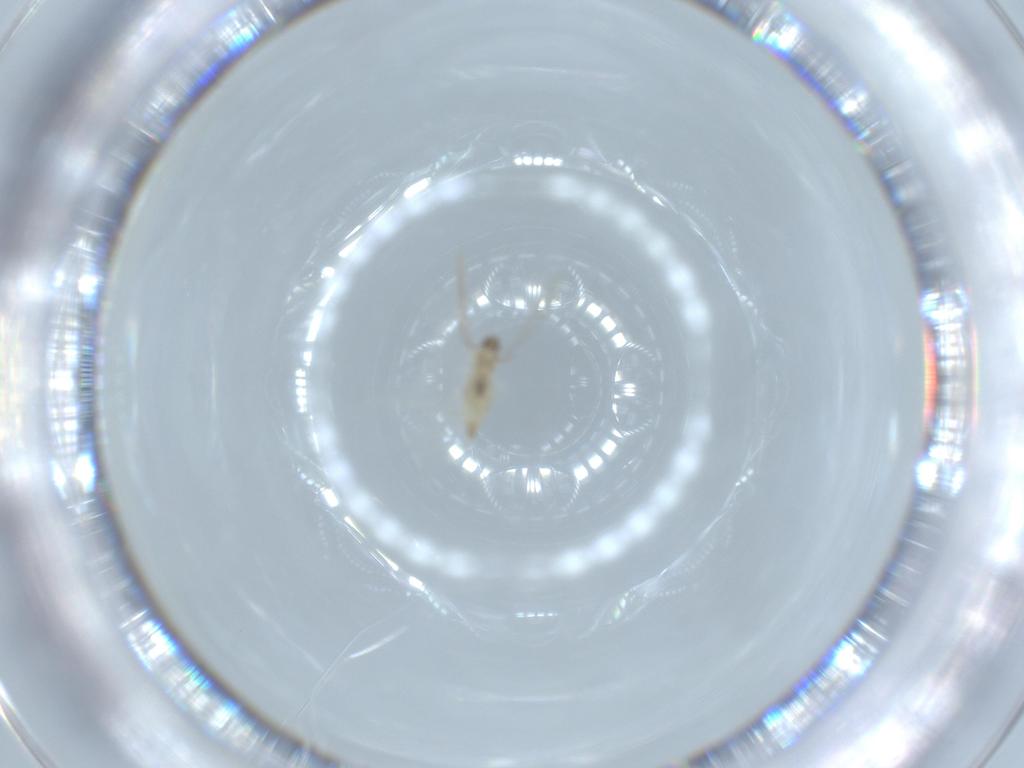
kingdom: Animalia
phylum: Arthropoda
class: Insecta
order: Diptera
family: Cecidomyiidae
